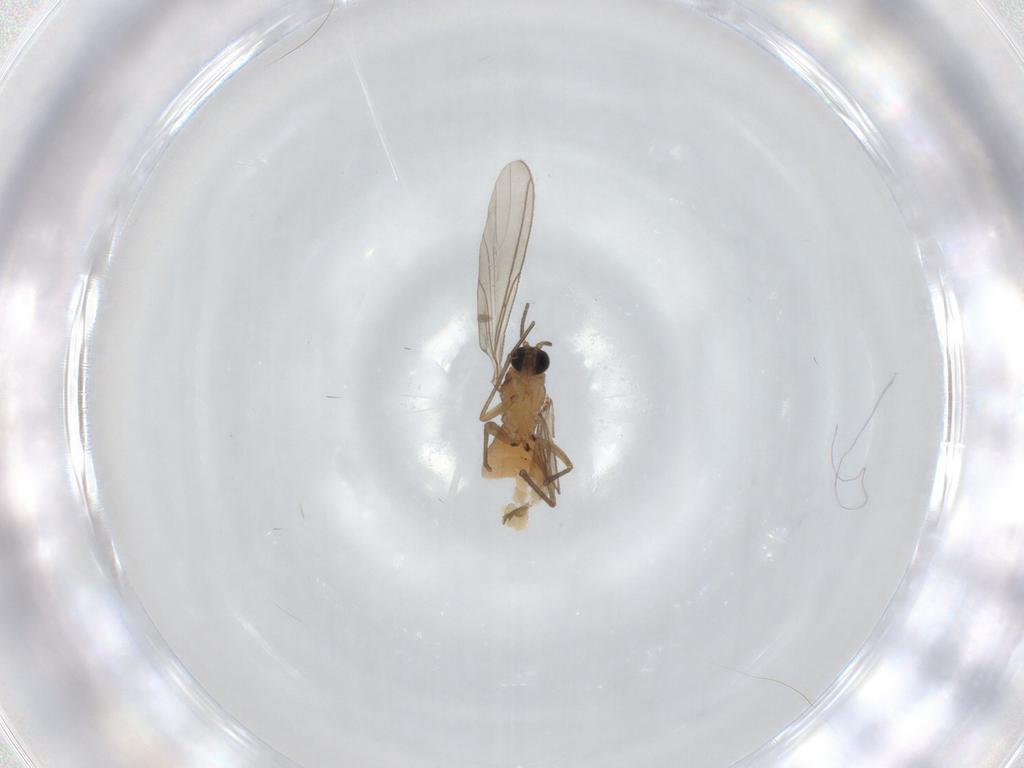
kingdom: Animalia
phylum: Arthropoda
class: Insecta
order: Diptera
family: Sciaridae
